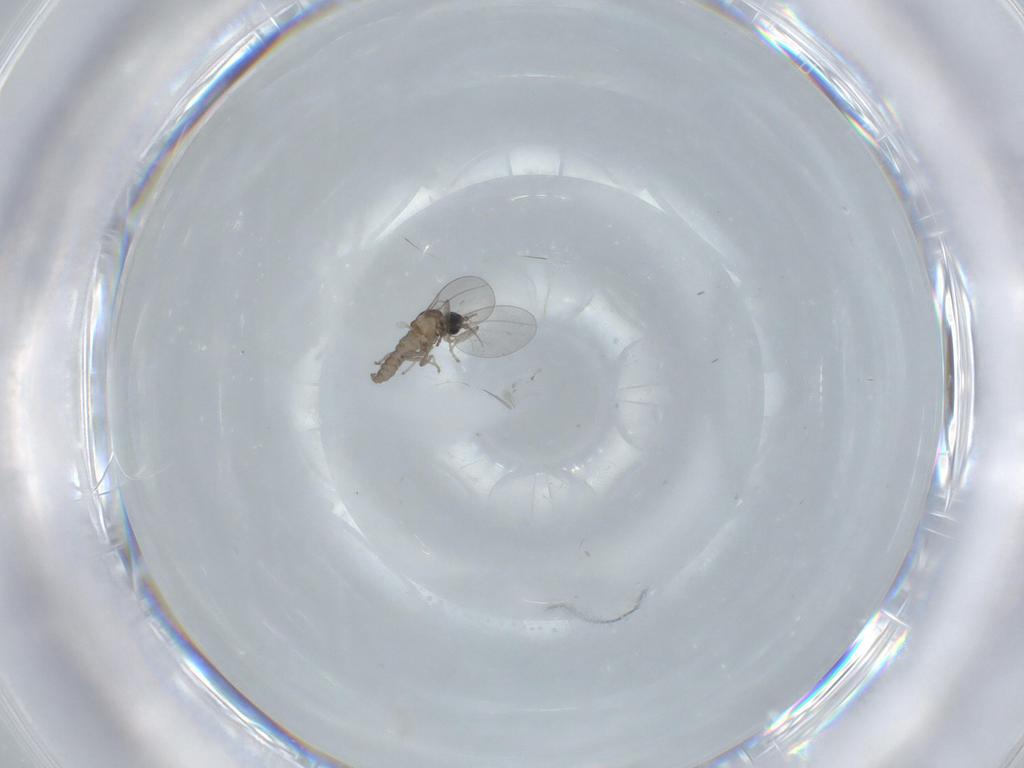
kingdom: Animalia
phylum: Arthropoda
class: Insecta
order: Diptera
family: Cecidomyiidae
